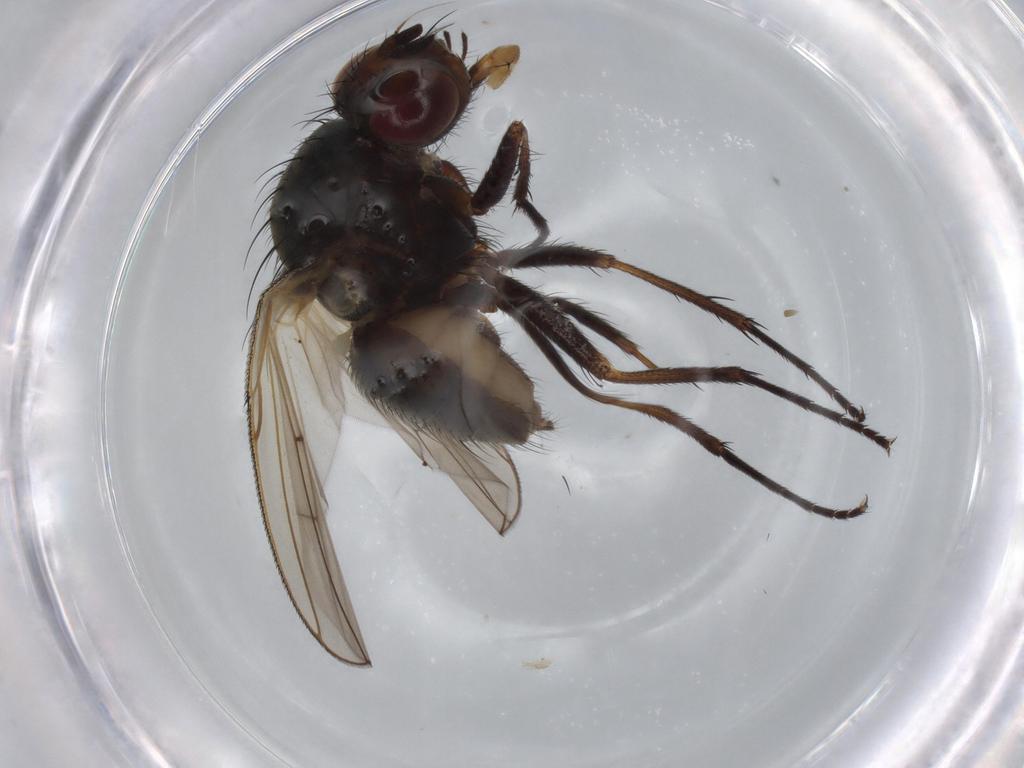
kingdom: Animalia
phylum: Arthropoda
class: Insecta
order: Diptera
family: Anthomyiidae
